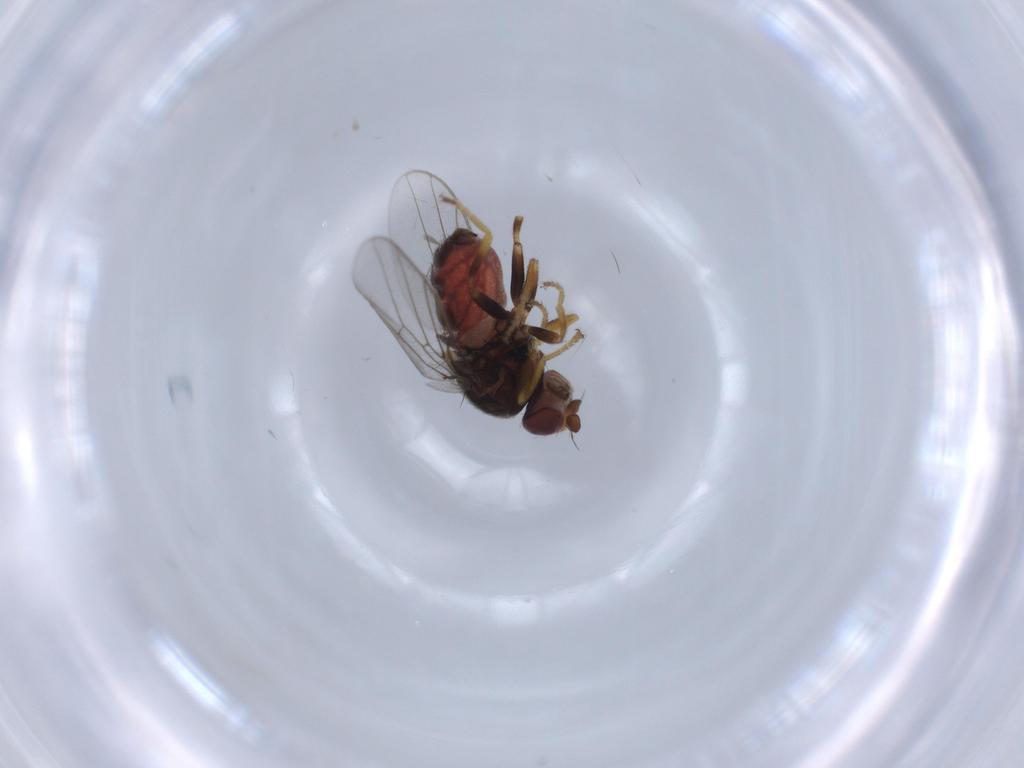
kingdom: Animalia
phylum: Arthropoda
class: Insecta
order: Diptera
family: Chloropidae
